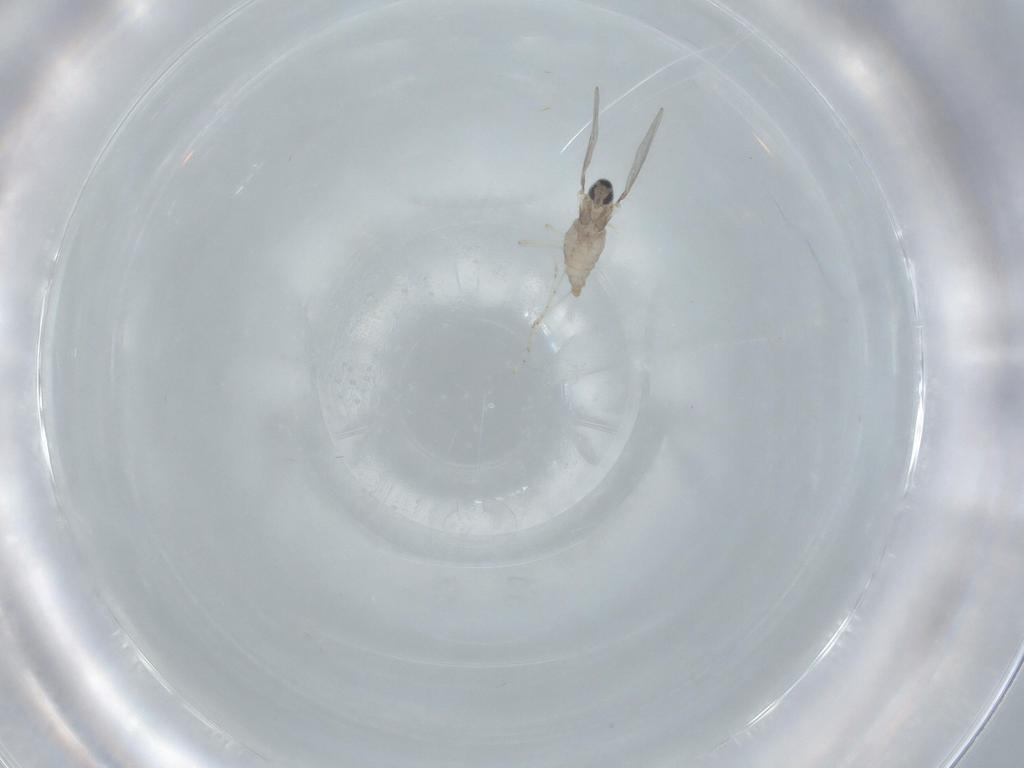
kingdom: Animalia
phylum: Arthropoda
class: Insecta
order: Diptera
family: Cecidomyiidae
